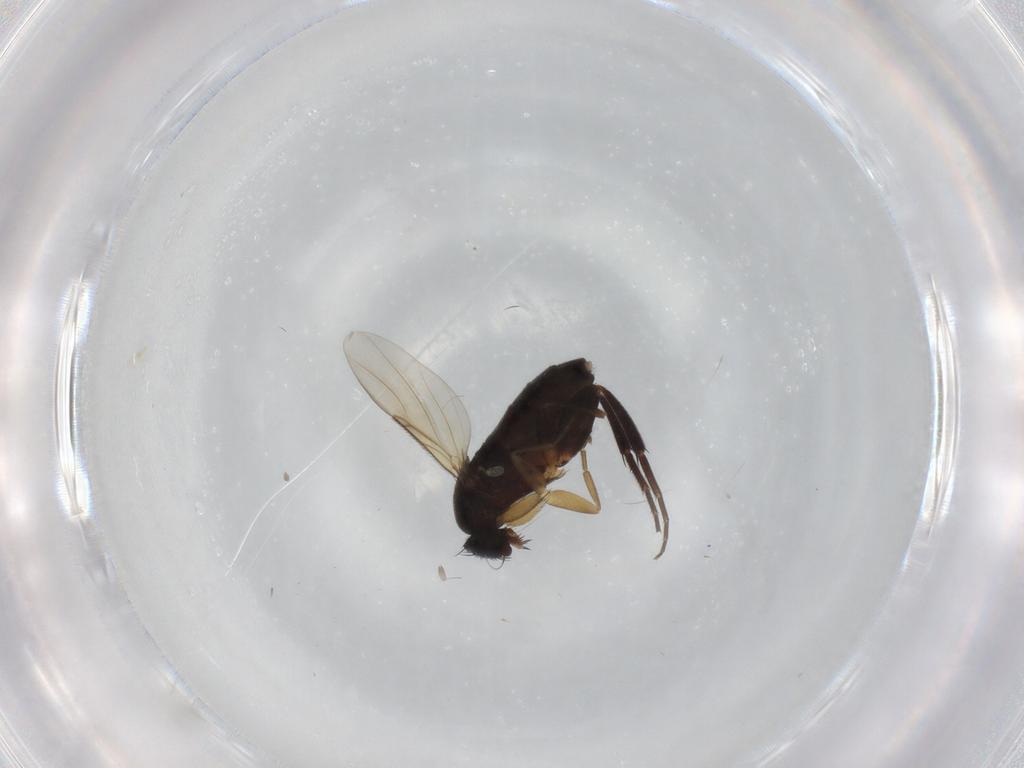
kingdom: Animalia
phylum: Arthropoda
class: Insecta
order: Diptera
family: Phoridae
